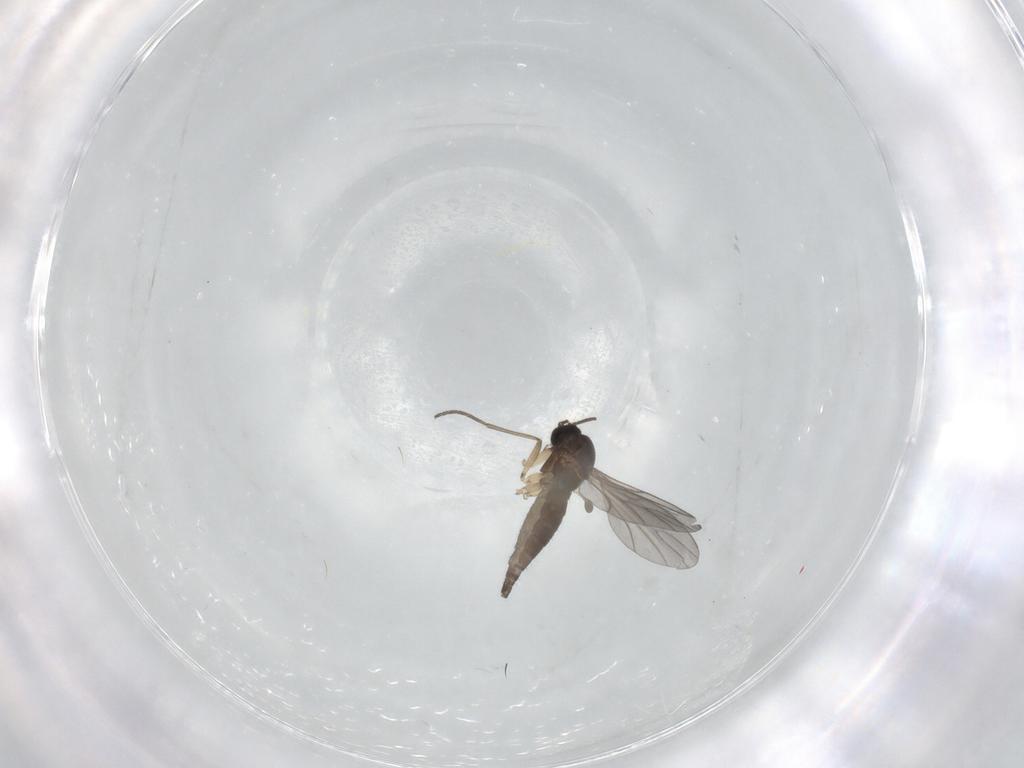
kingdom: Animalia
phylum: Arthropoda
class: Insecta
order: Diptera
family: Sciaridae
